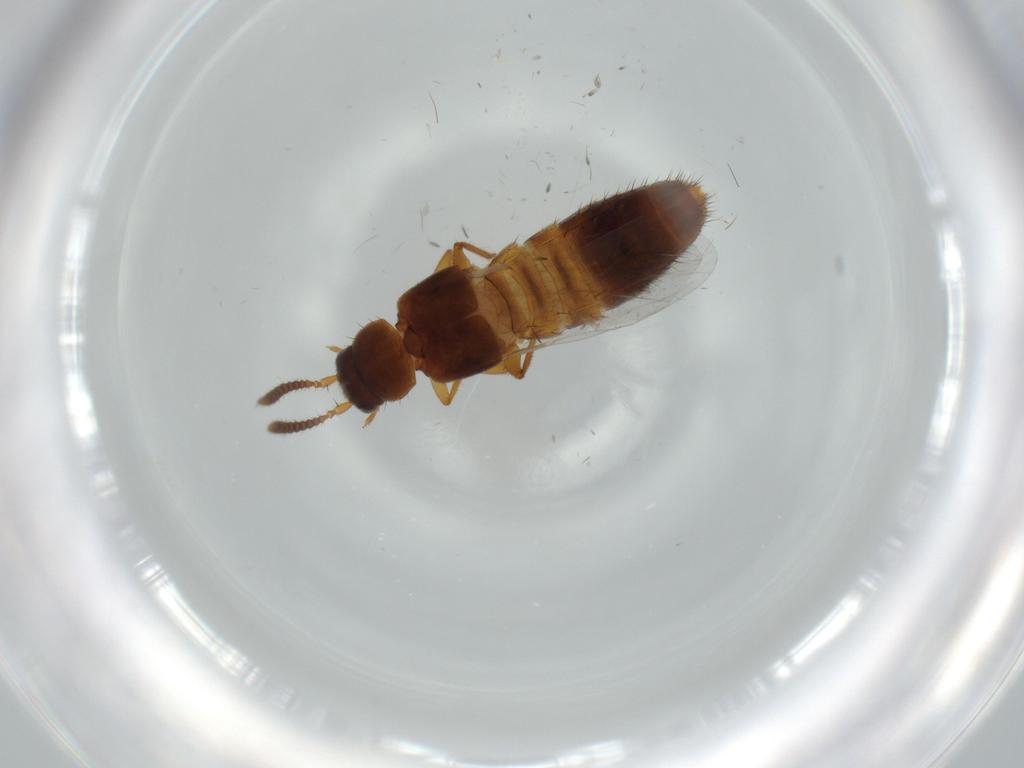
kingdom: Animalia
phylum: Arthropoda
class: Insecta
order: Coleoptera
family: Staphylinidae
